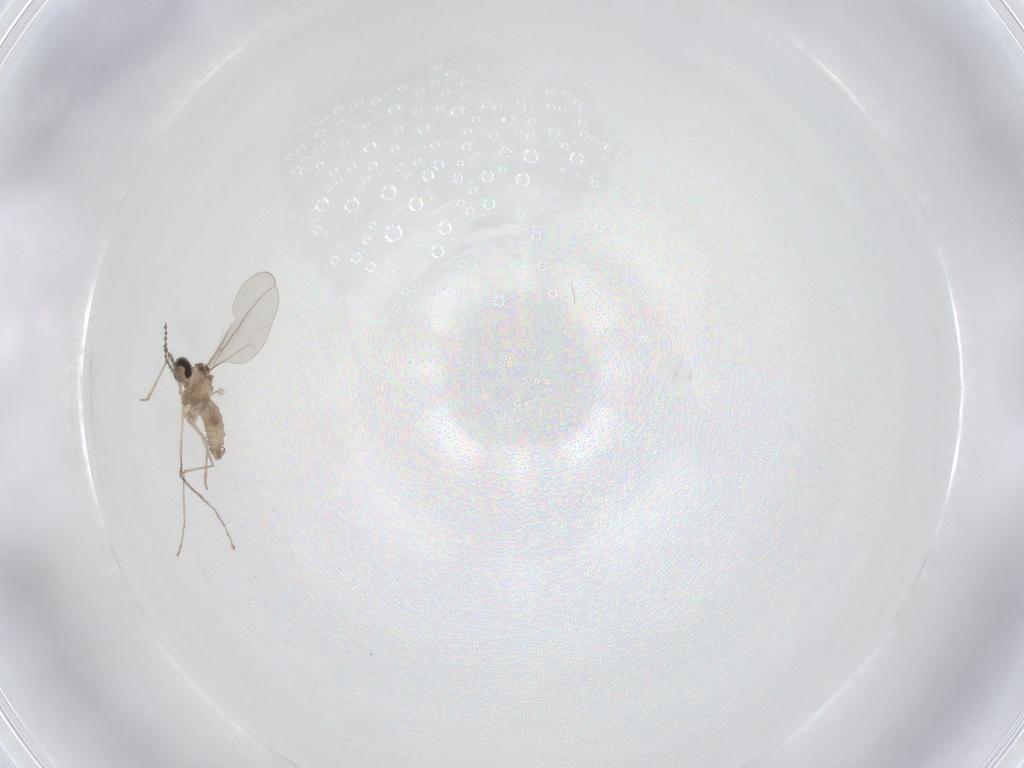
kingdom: Animalia
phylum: Arthropoda
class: Insecta
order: Diptera
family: Cecidomyiidae
